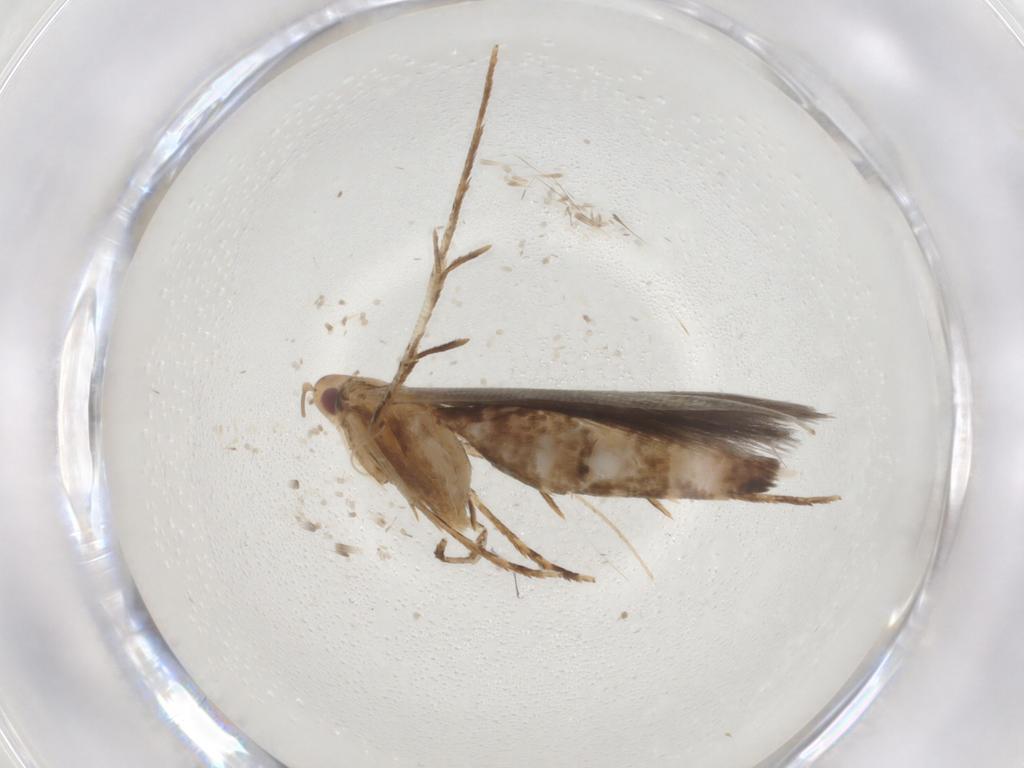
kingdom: Animalia
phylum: Arthropoda
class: Insecta
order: Lepidoptera
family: Cosmopterigidae
